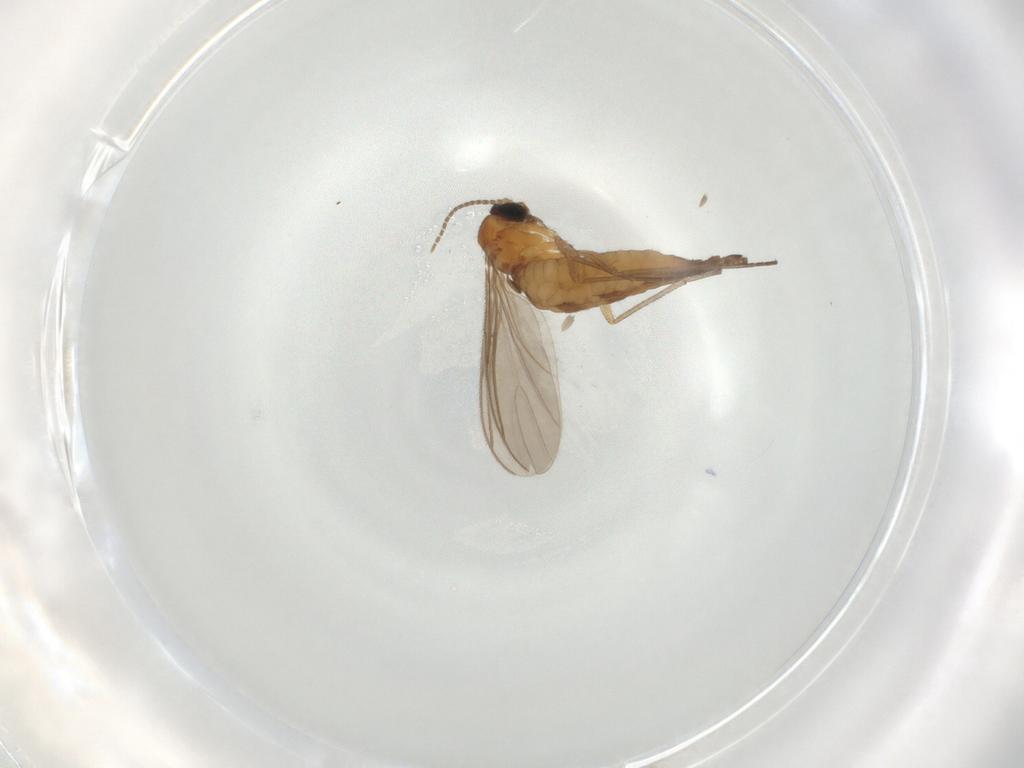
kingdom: Animalia
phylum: Arthropoda
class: Insecta
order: Diptera
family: Sciaridae
